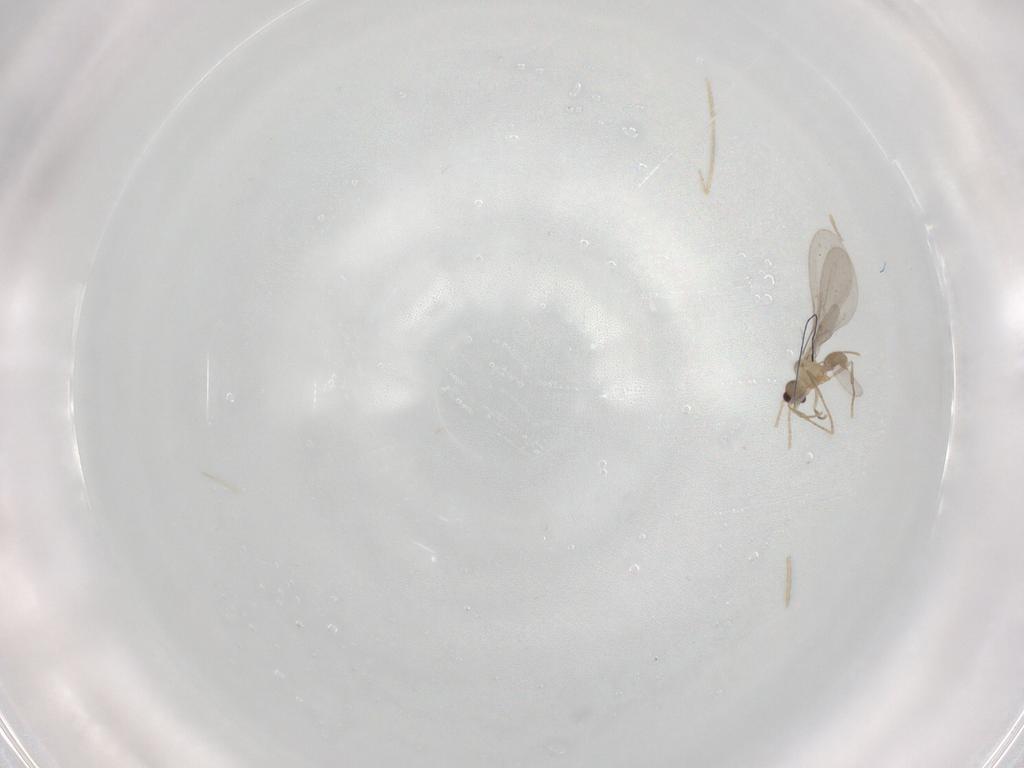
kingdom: Animalia
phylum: Arthropoda
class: Insecta
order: Hymenoptera
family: Formicidae
